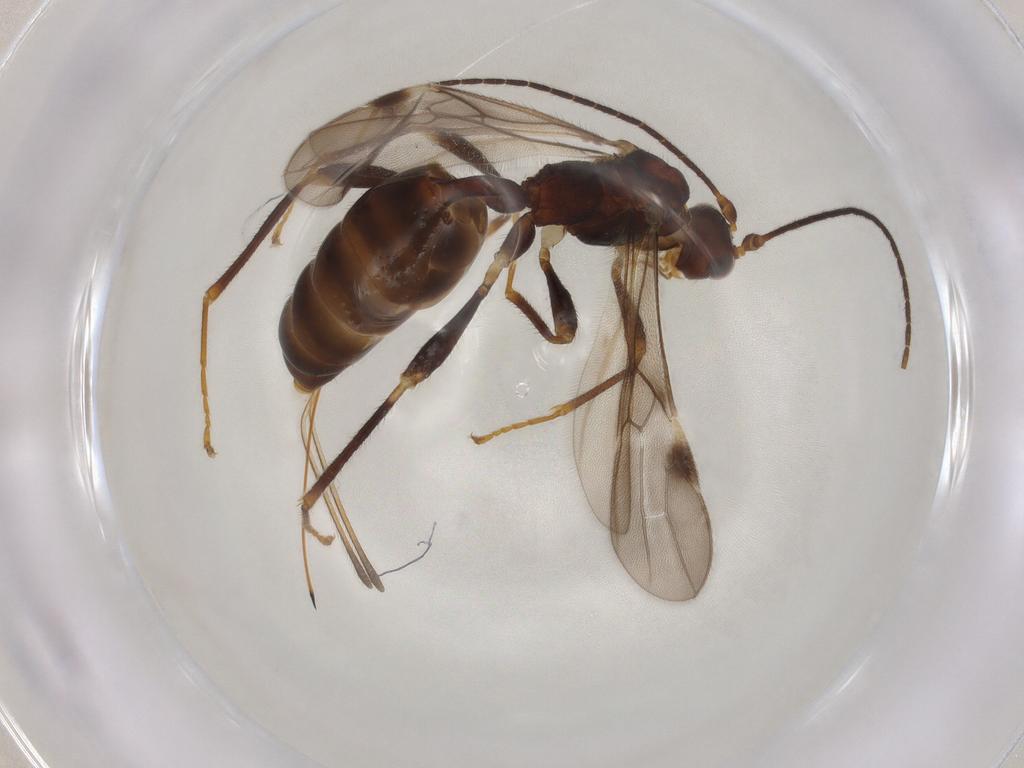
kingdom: Animalia
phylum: Arthropoda
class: Insecta
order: Hymenoptera
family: Braconidae
